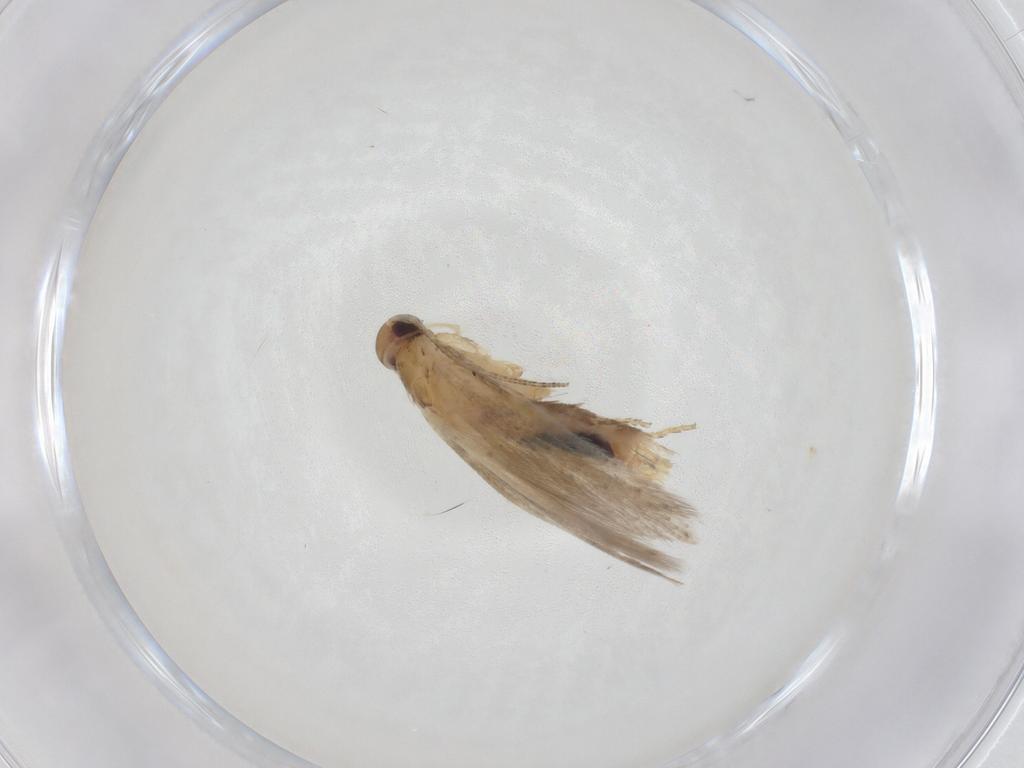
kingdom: Animalia
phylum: Arthropoda
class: Insecta
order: Lepidoptera
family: Gelechiidae
